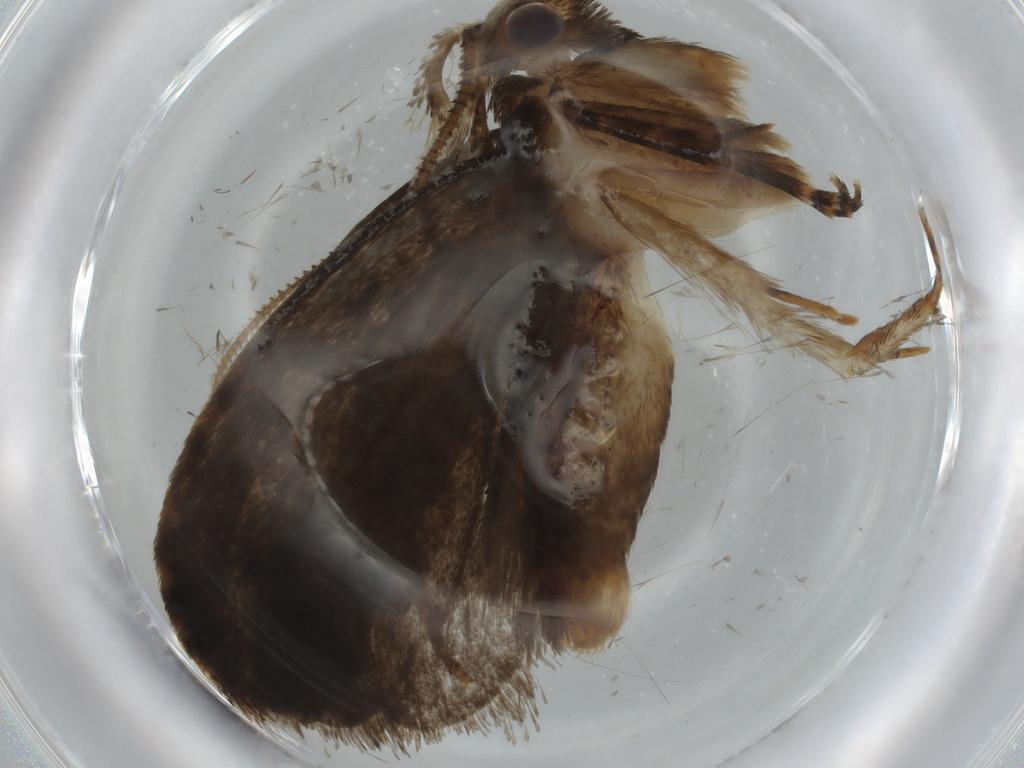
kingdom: Animalia
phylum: Arthropoda
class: Insecta
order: Lepidoptera
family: Tineidae
